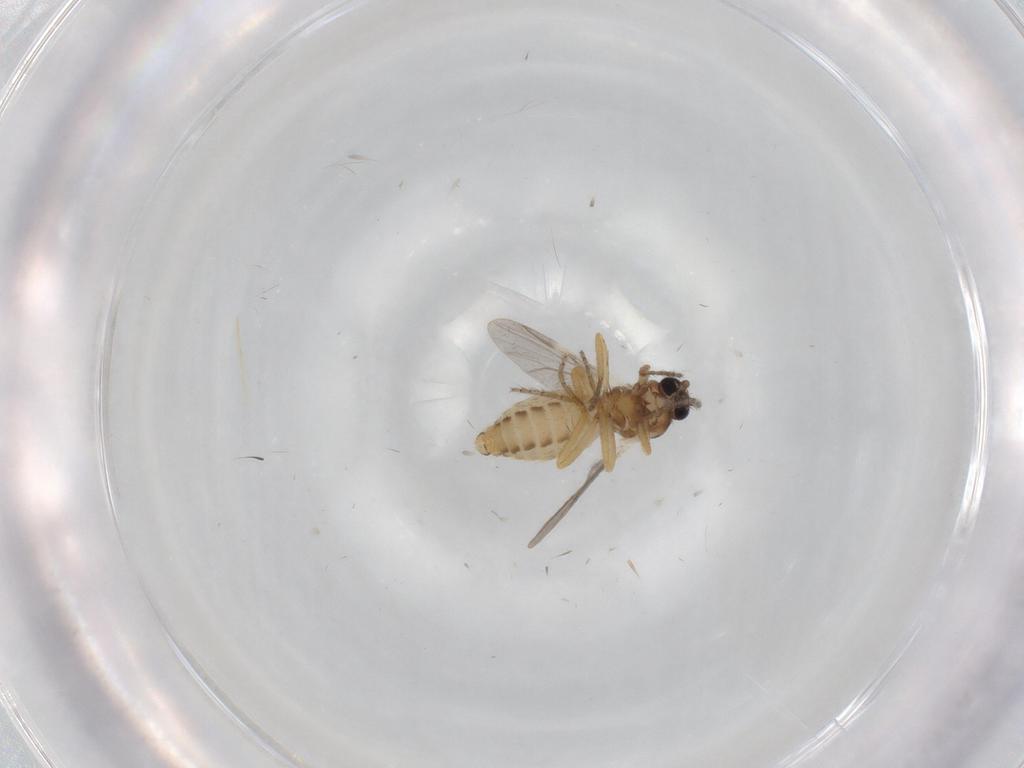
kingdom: Animalia
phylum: Arthropoda
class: Insecta
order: Diptera
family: Ceratopogonidae
